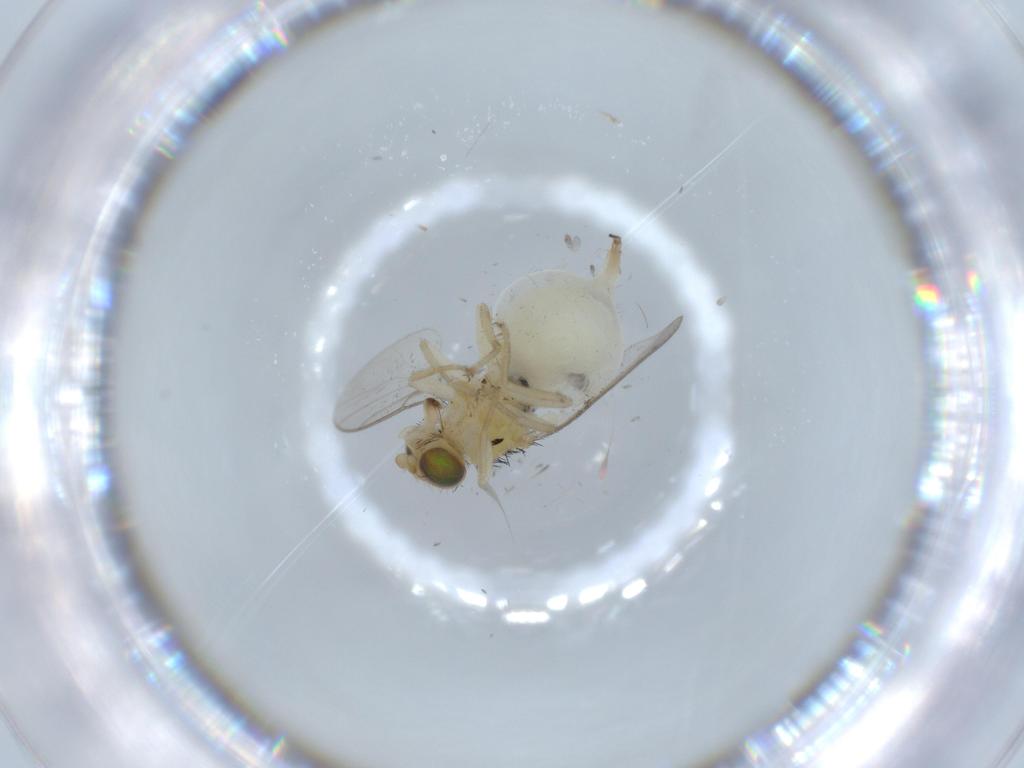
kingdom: Animalia
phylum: Arthropoda
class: Insecta
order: Diptera
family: Chloropidae
